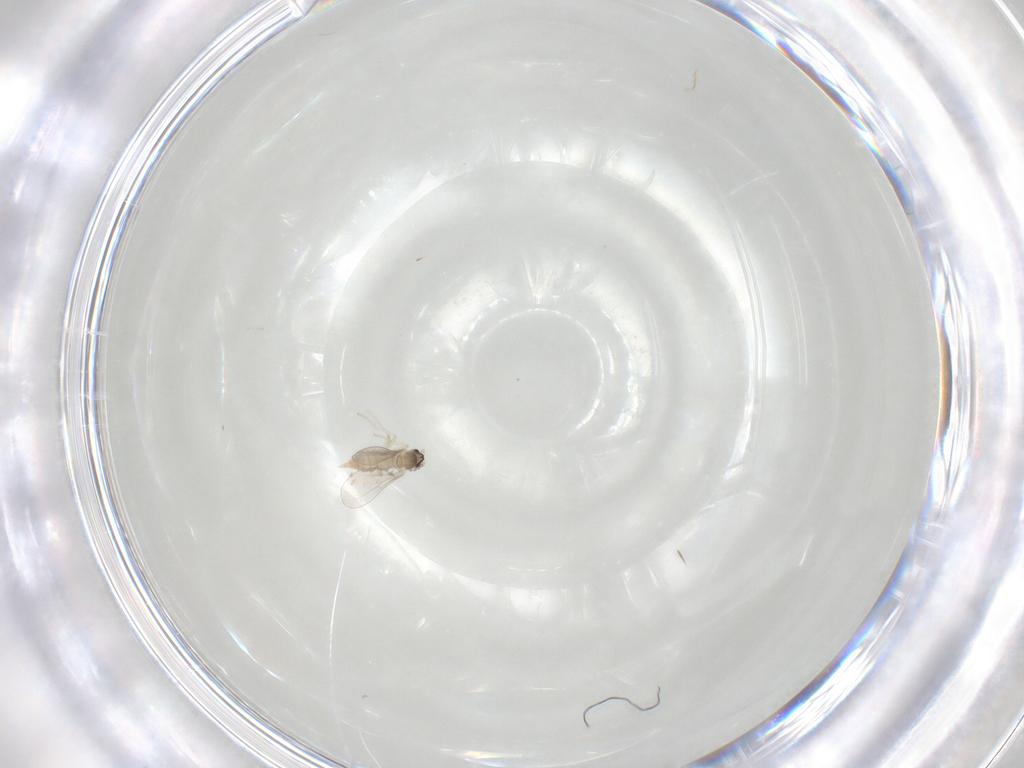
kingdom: Animalia
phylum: Arthropoda
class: Insecta
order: Diptera
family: Cecidomyiidae
